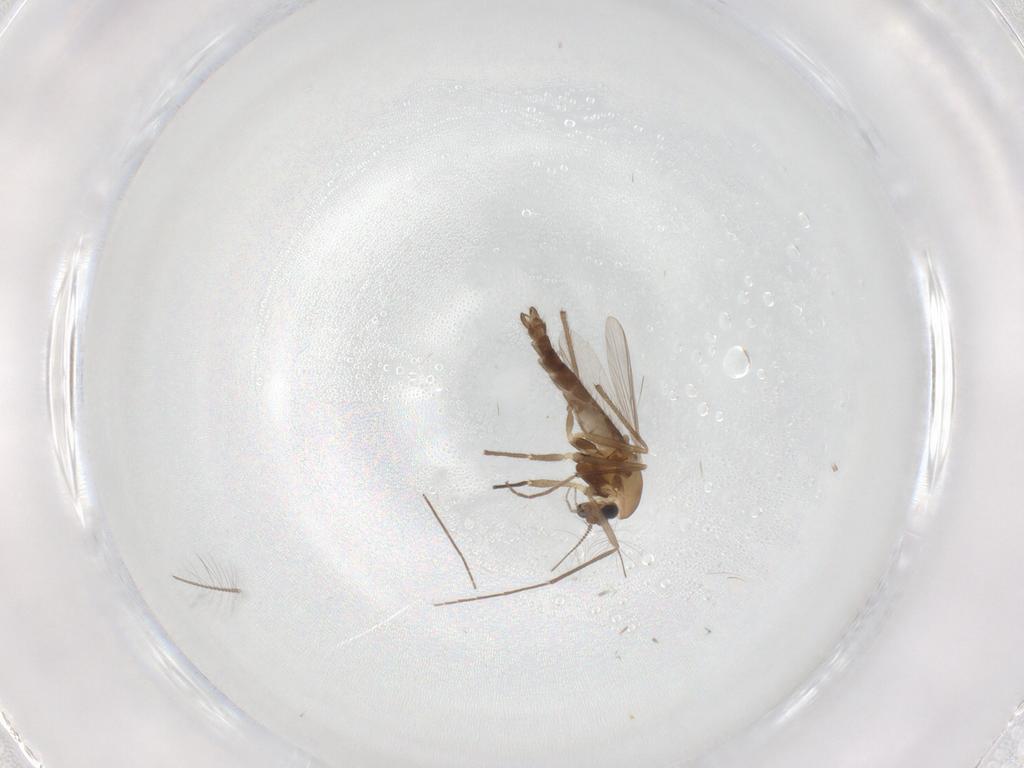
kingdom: Animalia
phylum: Arthropoda
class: Insecta
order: Diptera
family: Chironomidae
